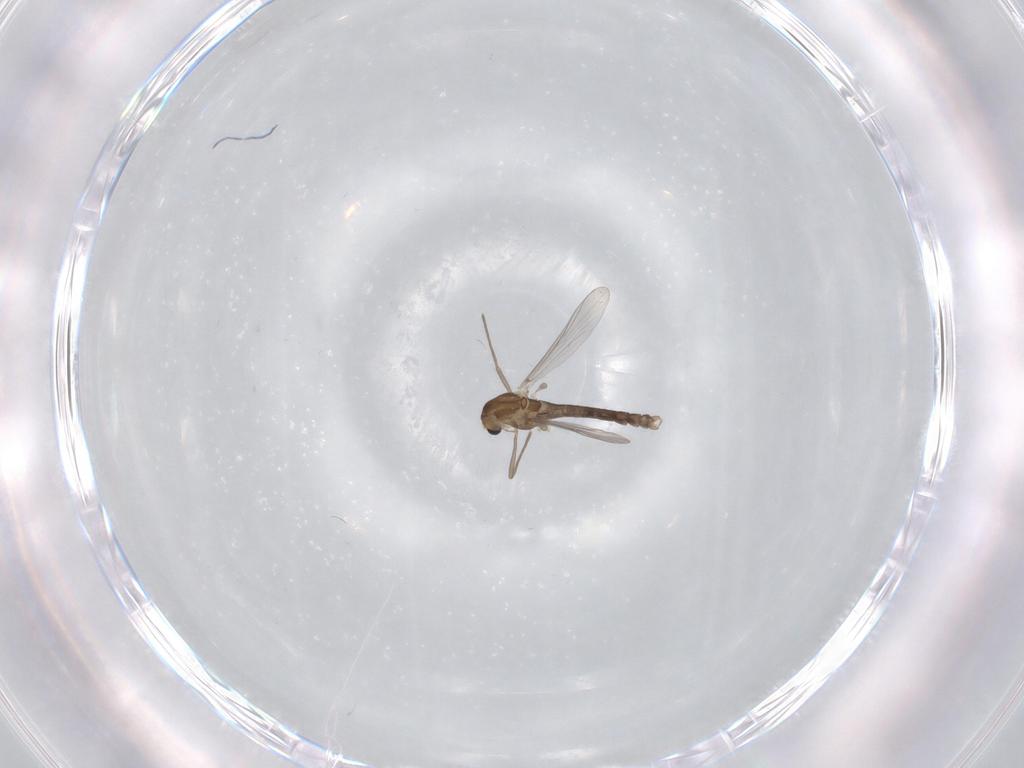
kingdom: Animalia
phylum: Arthropoda
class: Insecta
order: Diptera
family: Chironomidae
